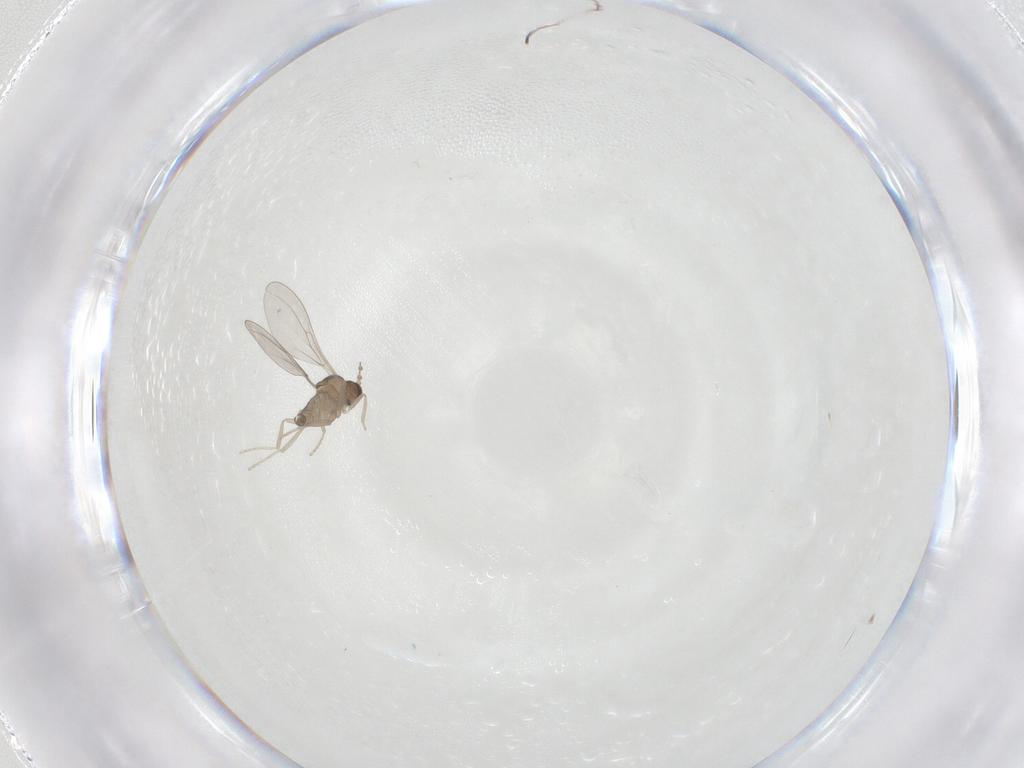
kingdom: Animalia
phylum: Arthropoda
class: Insecta
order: Diptera
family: Cecidomyiidae
